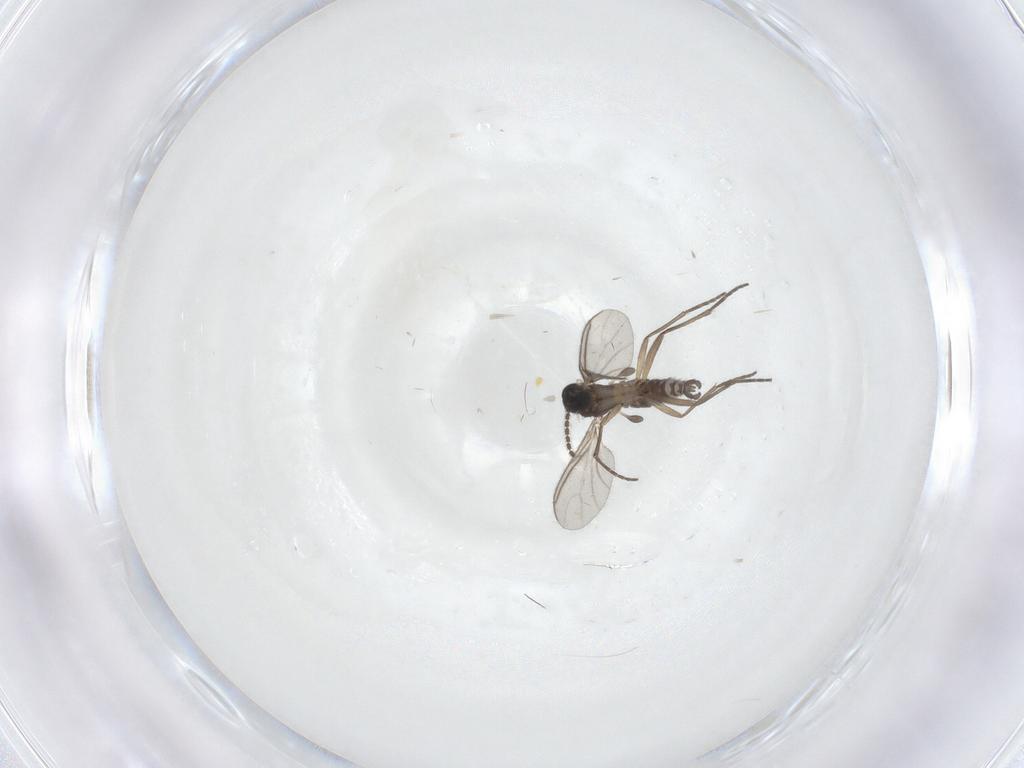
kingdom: Animalia
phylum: Arthropoda
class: Insecta
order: Diptera
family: Sciaridae
